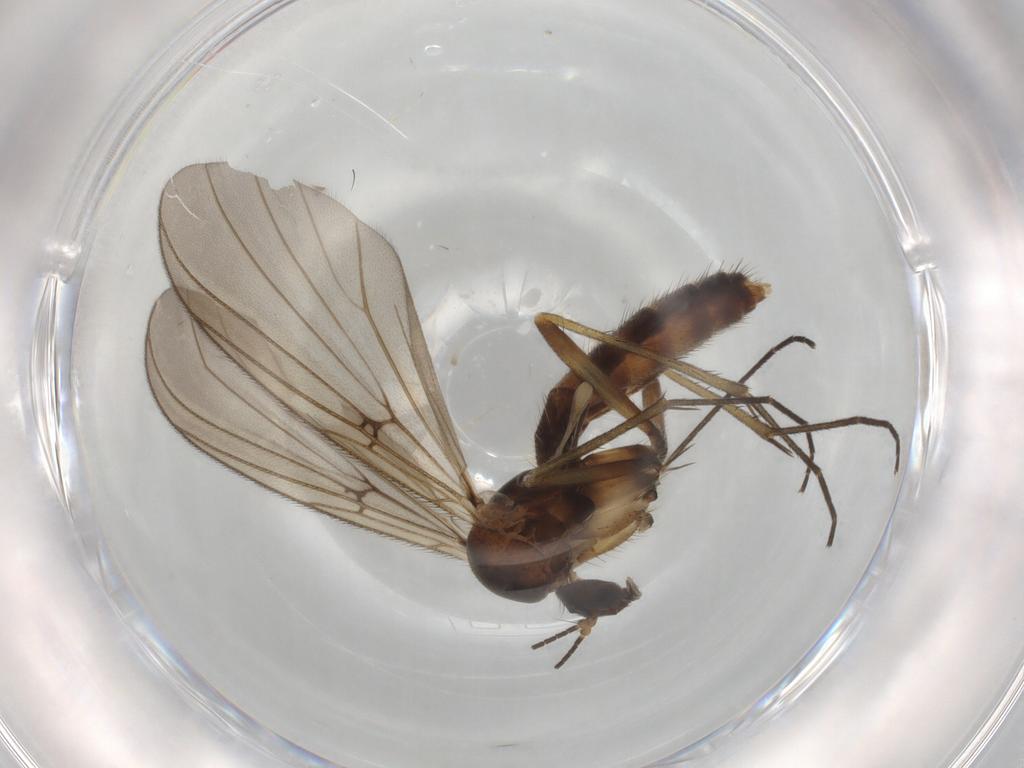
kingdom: Animalia
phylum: Arthropoda
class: Insecta
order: Diptera
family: Mycetophilidae
